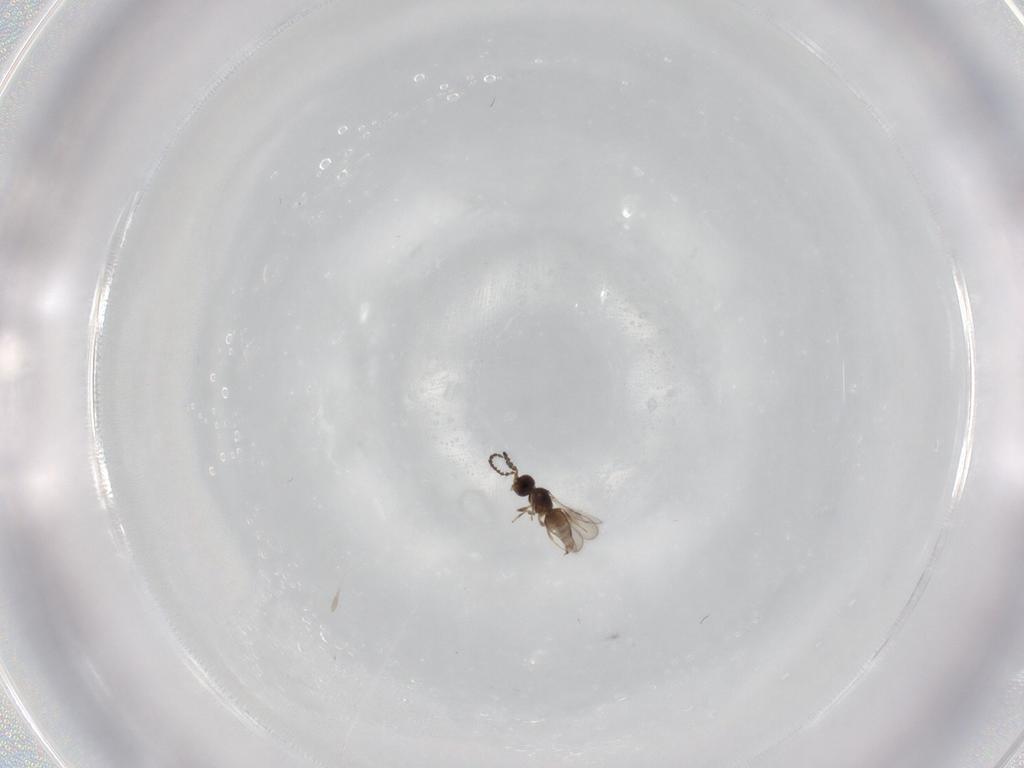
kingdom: Animalia
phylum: Arthropoda
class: Insecta
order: Diptera
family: Chironomidae
